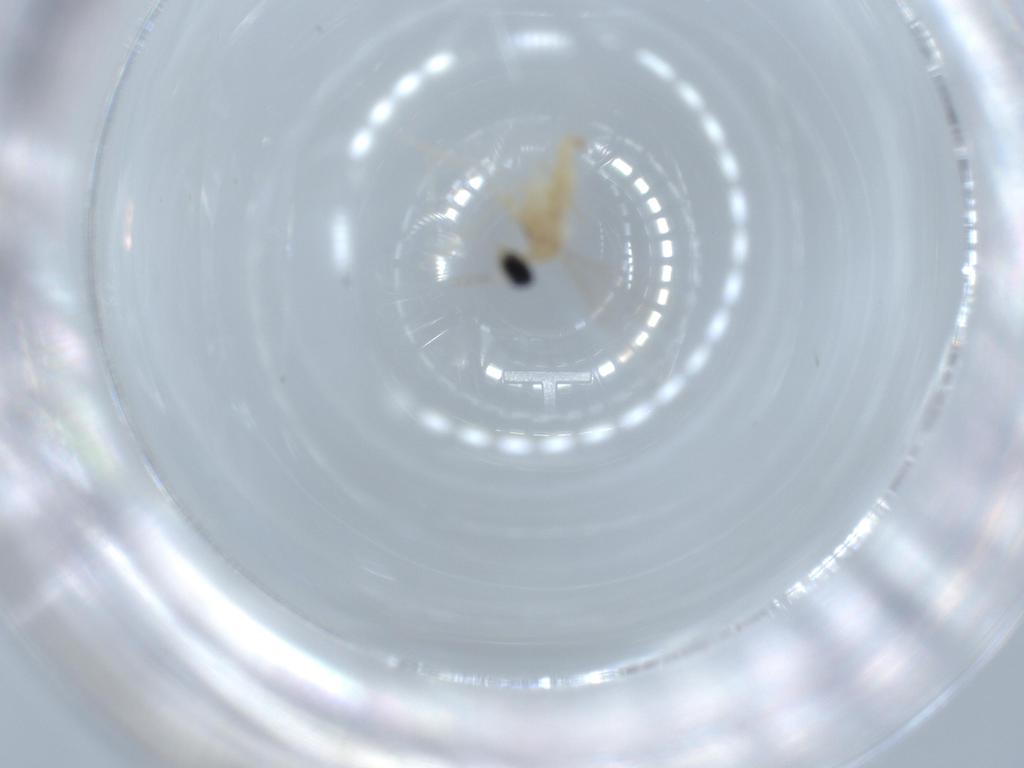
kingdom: Animalia
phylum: Arthropoda
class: Insecta
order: Diptera
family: Cecidomyiidae
